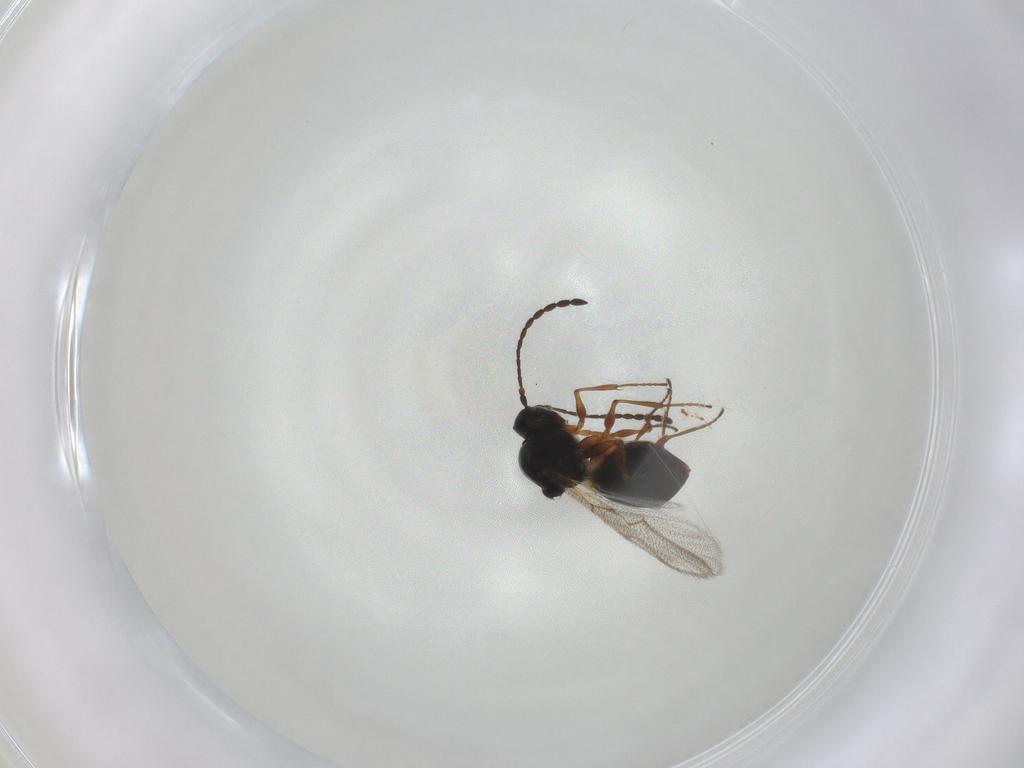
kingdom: Animalia
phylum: Arthropoda
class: Insecta
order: Hymenoptera
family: Figitidae
